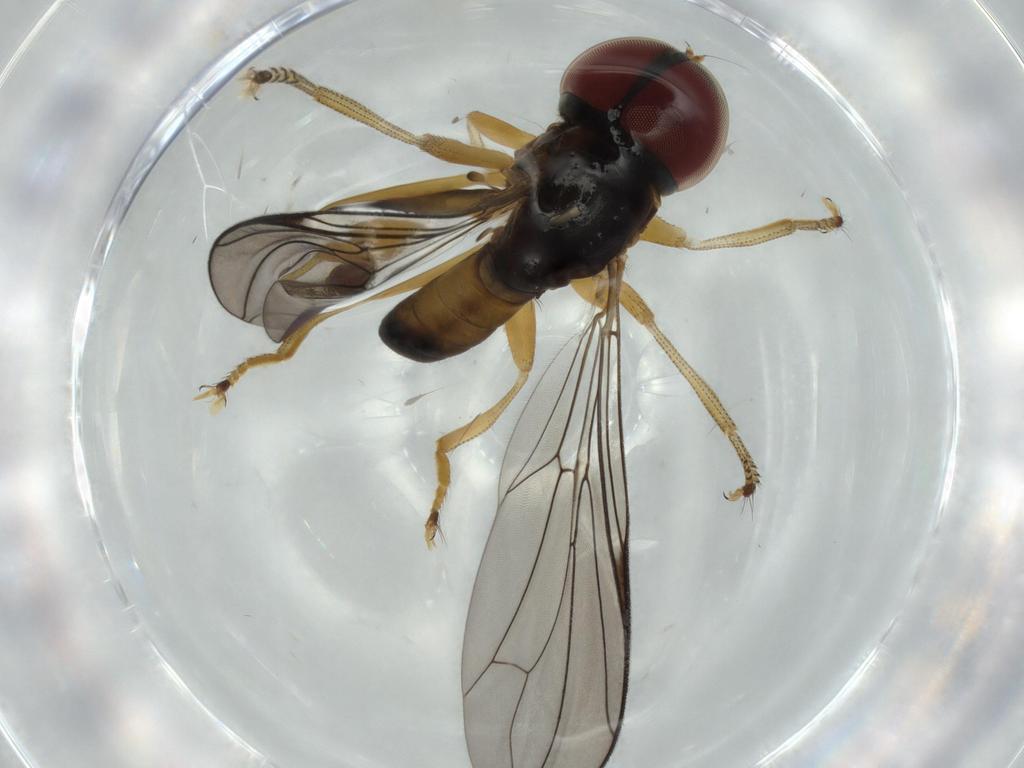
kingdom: Animalia
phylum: Arthropoda
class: Insecta
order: Diptera
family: Pipunculidae
